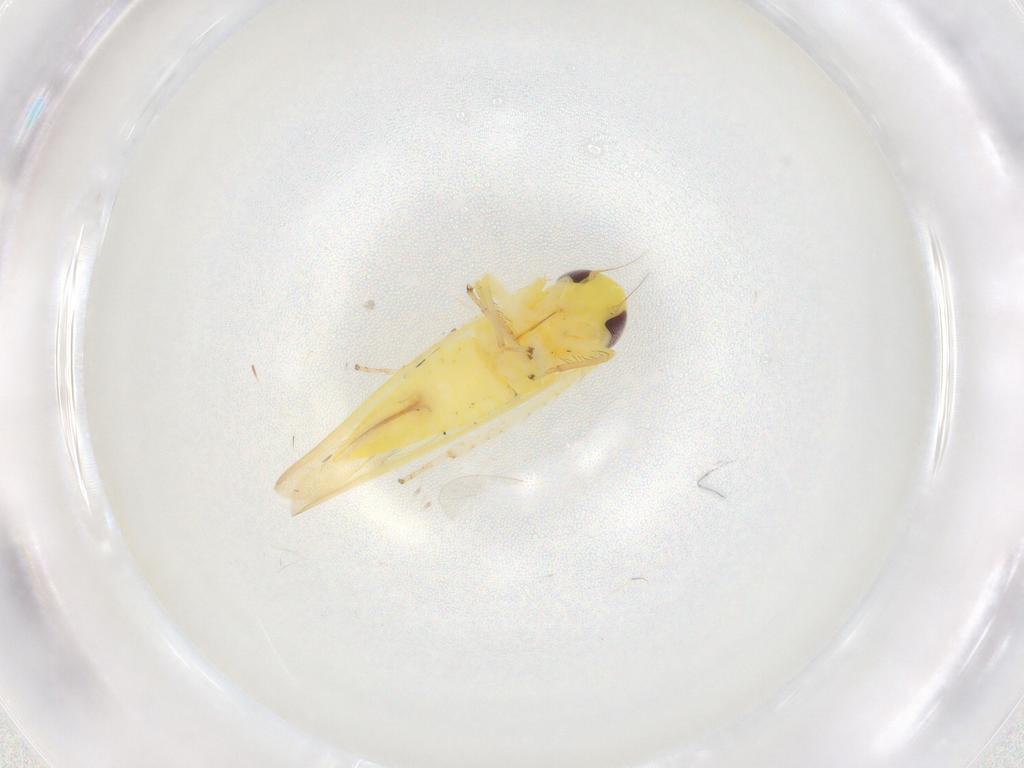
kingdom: Animalia
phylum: Arthropoda
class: Insecta
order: Hemiptera
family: Cicadellidae
